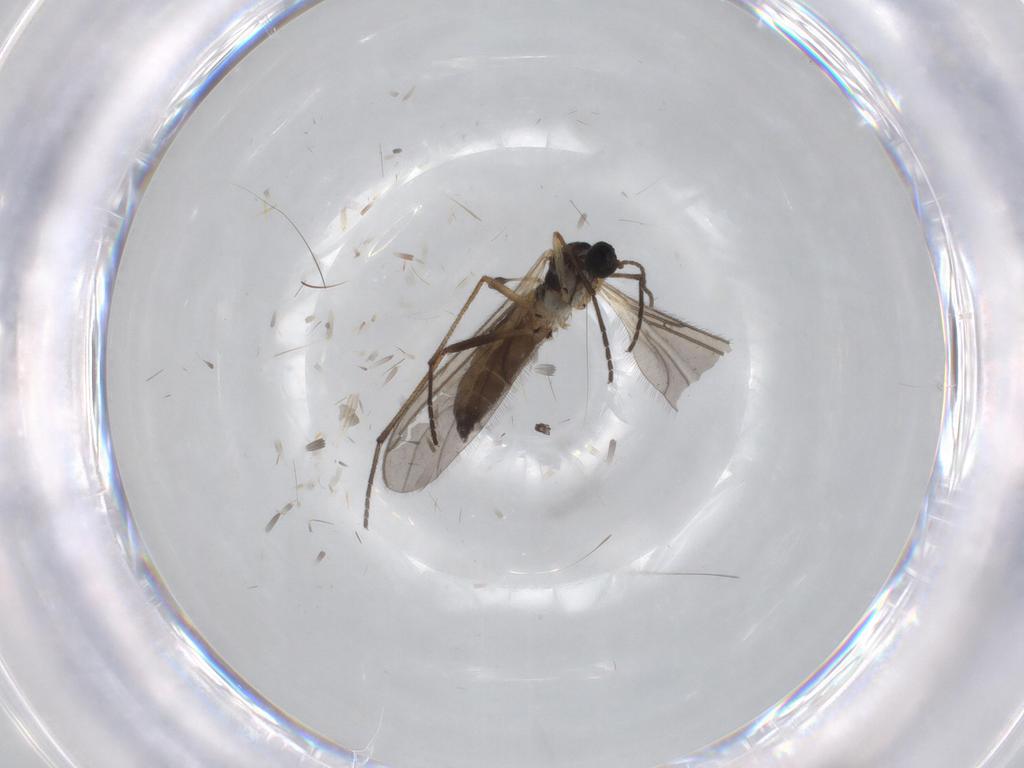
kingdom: Animalia
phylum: Arthropoda
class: Insecta
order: Diptera
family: Sciaridae
